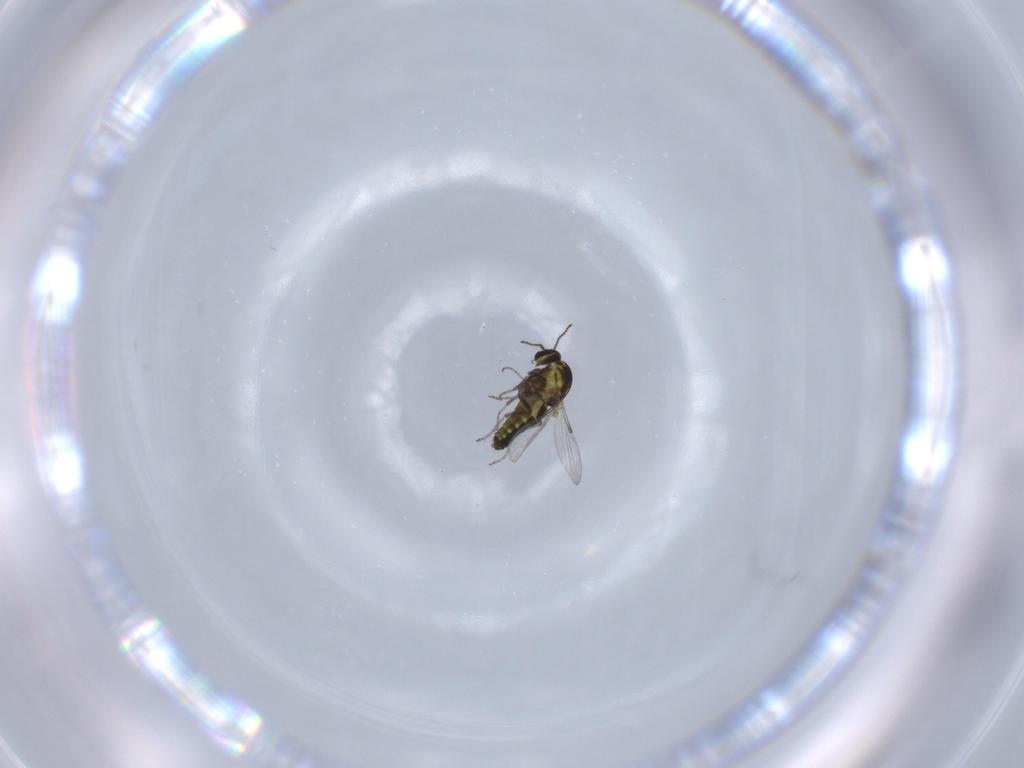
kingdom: Animalia
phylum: Arthropoda
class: Insecta
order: Diptera
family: Ceratopogonidae
